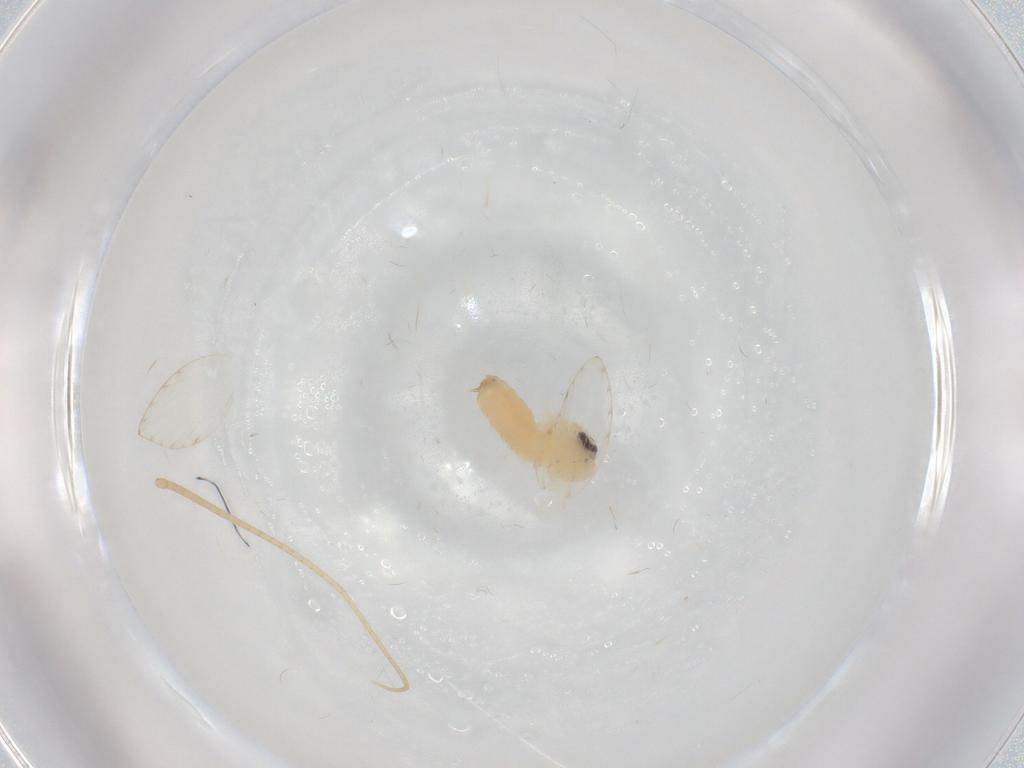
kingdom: Animalia
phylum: Arthropoda
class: Insecta
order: Diptera
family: Psychodidae
